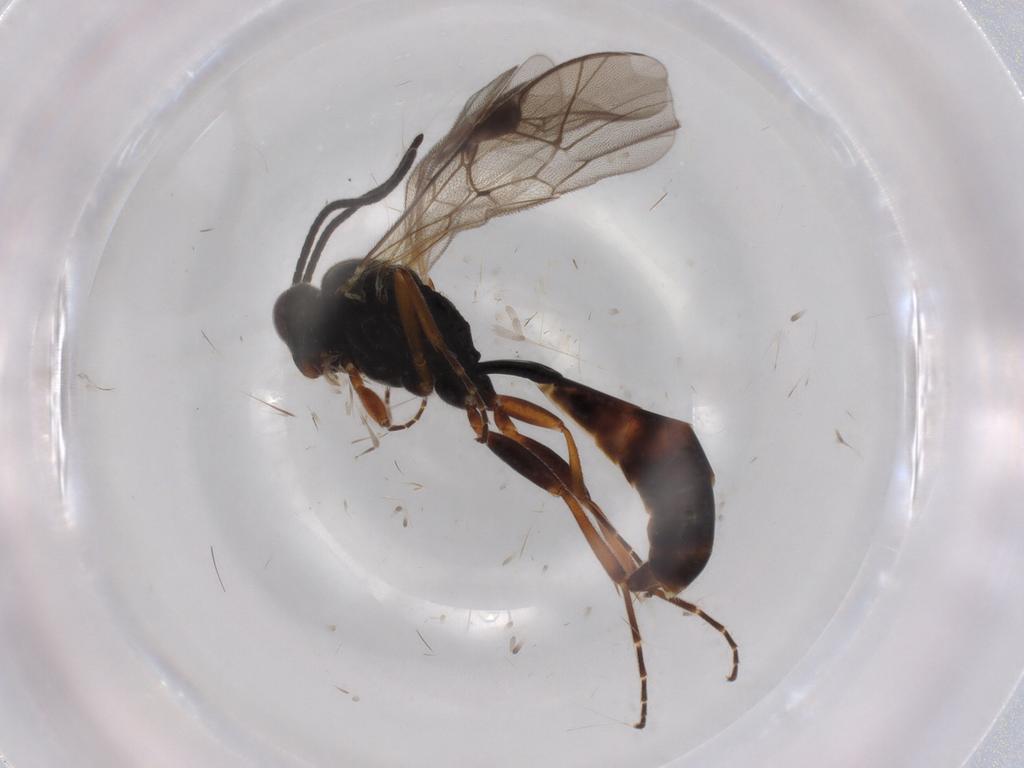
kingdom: Animalia
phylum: Arthropoda
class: Insecta
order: Hymenoptera
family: Ichneumonidae
